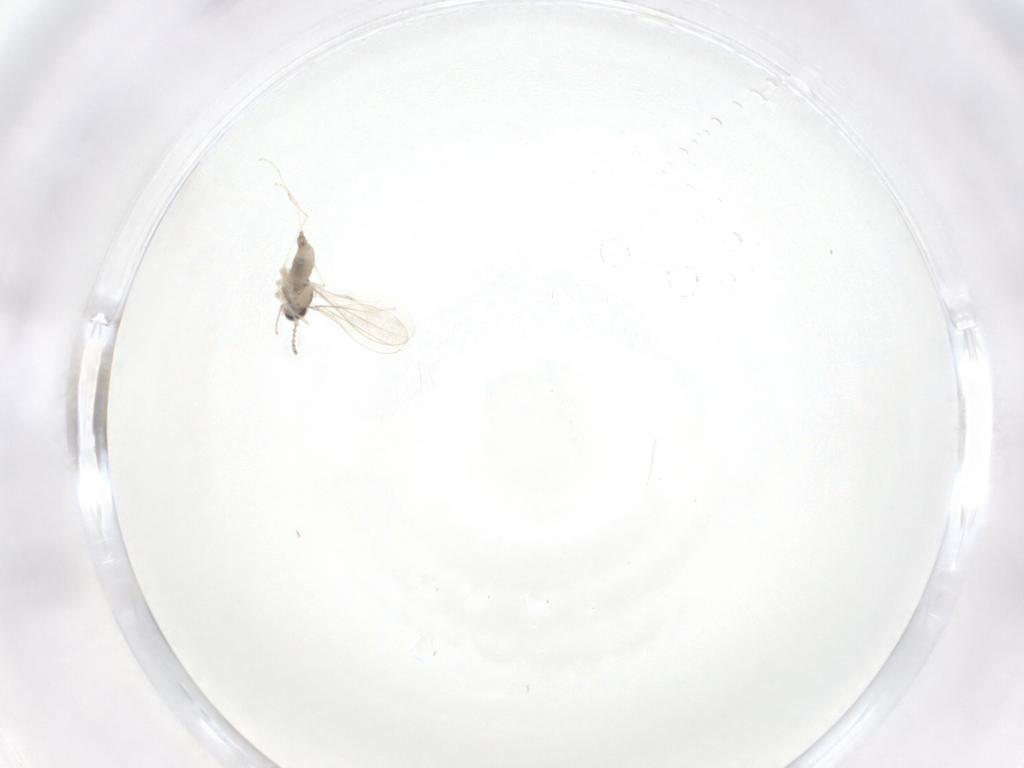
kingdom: Animalia
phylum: Arthropoda
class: Insecta
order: Diptera
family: Cecidomyiidae
